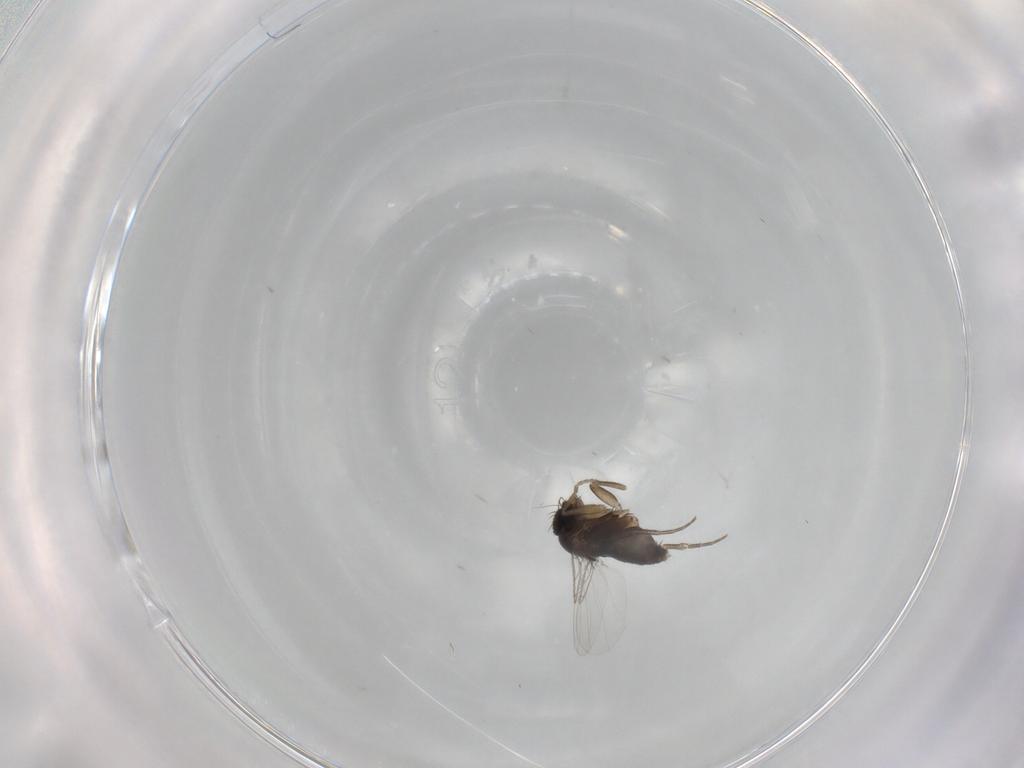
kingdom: Animalia
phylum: Arthropoda
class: Insecta
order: Diptera
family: Phoridae
